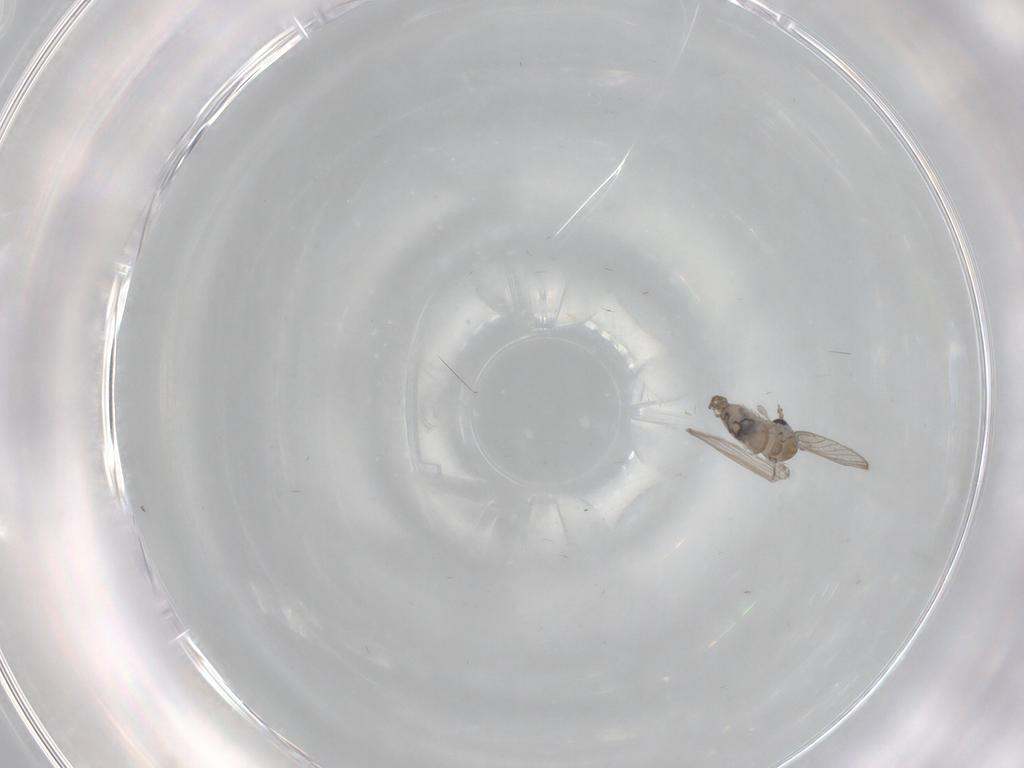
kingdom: Animalia
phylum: Arthropoda
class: Insecta
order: Diptera
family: Psychodidae
